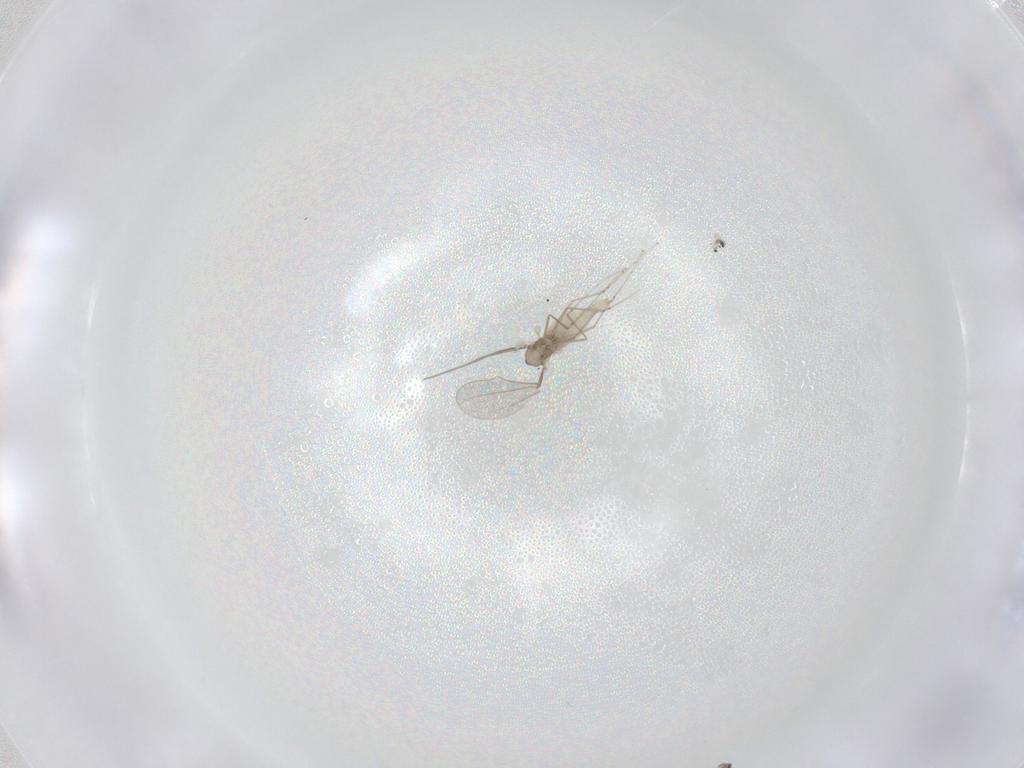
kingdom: Animalia
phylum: Arthropoda
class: Insecta
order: Diptera
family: Cecidomyiidae
